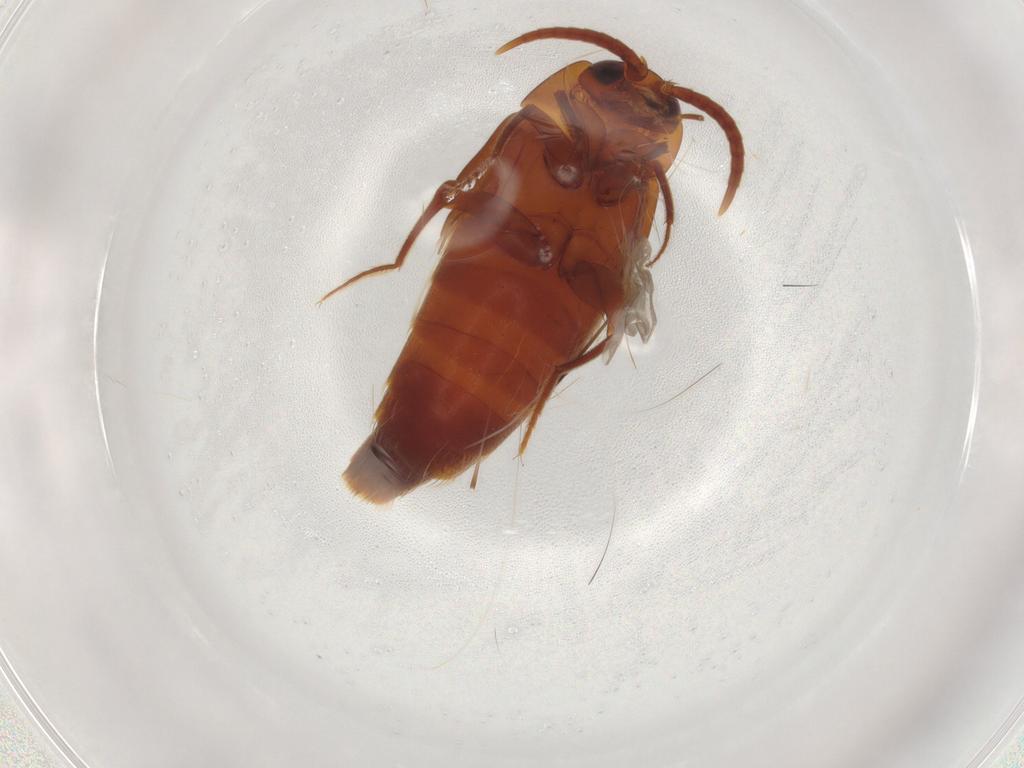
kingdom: Animalia
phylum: Arthropoda
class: Insecta
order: Coleoptera
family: Staphylinidae
